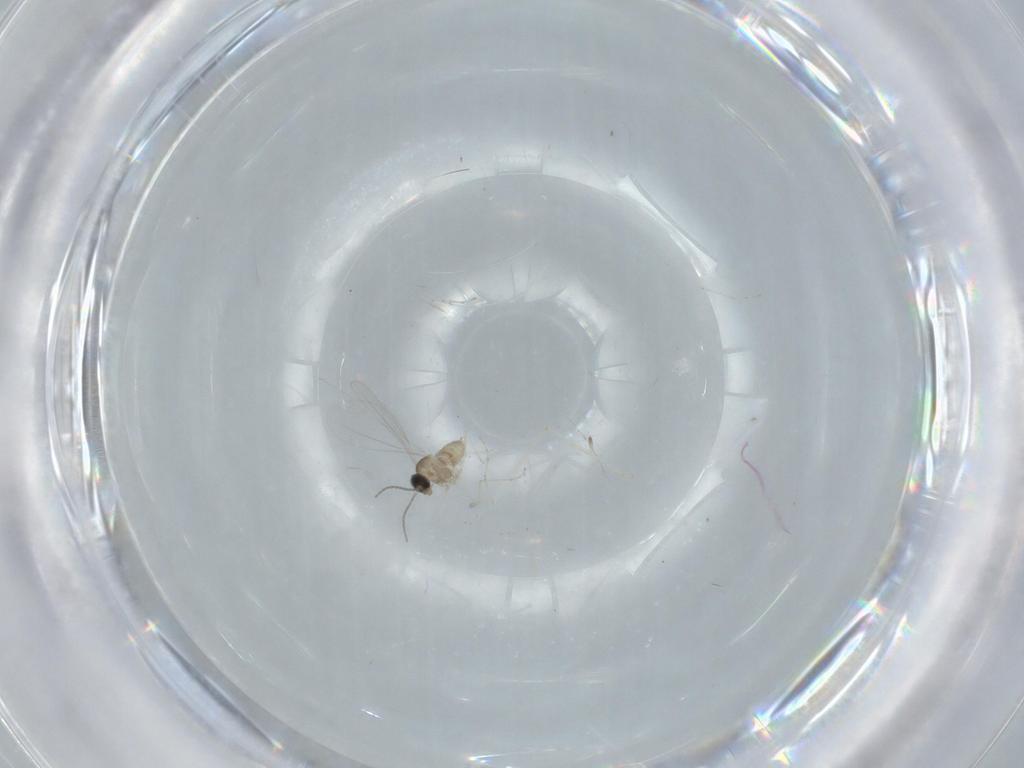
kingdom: Animalia
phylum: Arthropoda
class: Insecta
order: Diptera
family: Cecidomyiidae
